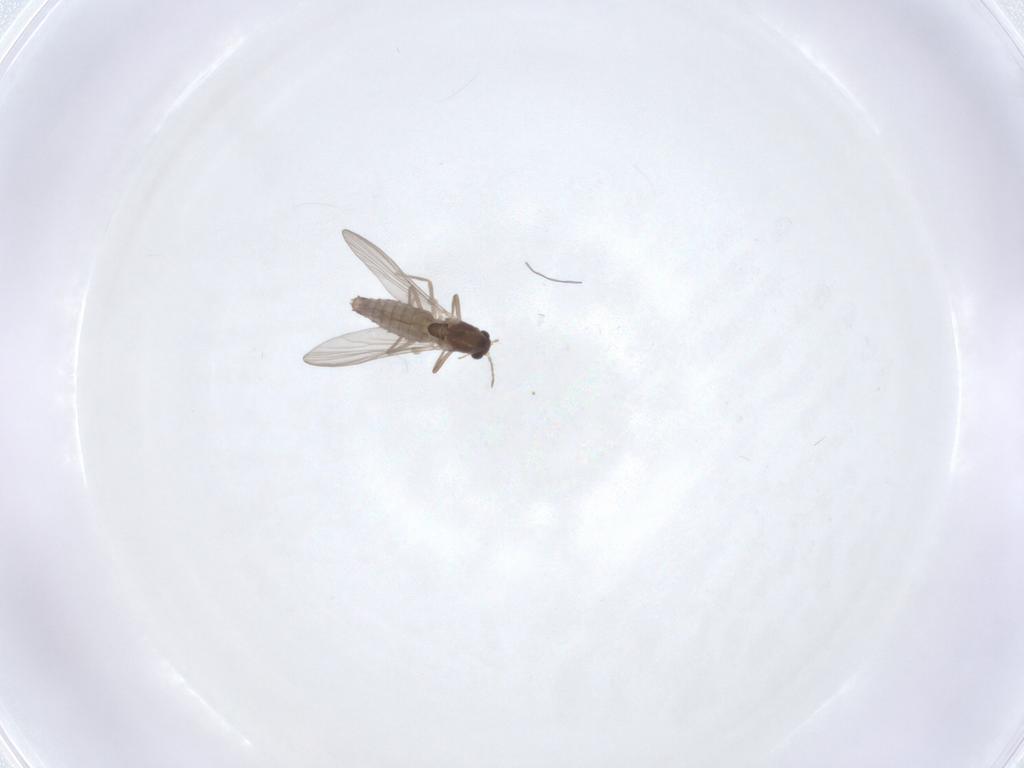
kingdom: Animalia
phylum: Arthropoda
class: Insecta
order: Diptera
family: Chironomidae
